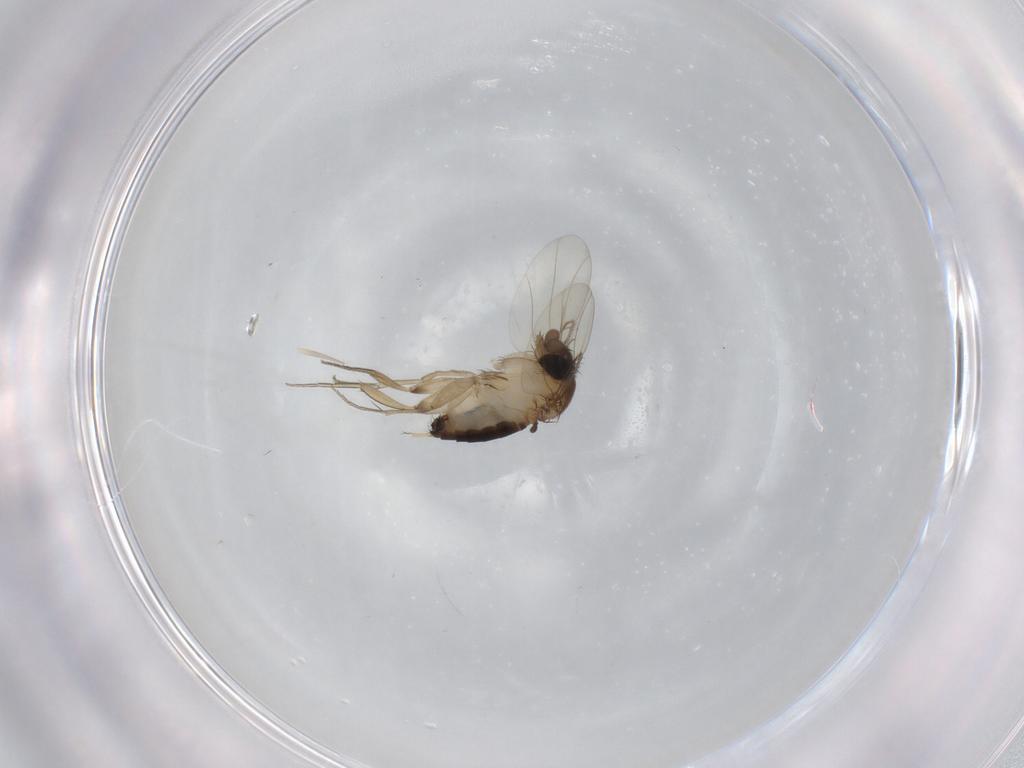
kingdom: Animalia
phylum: Arthropoda
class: Insecta
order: Diptera
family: Phoridae
